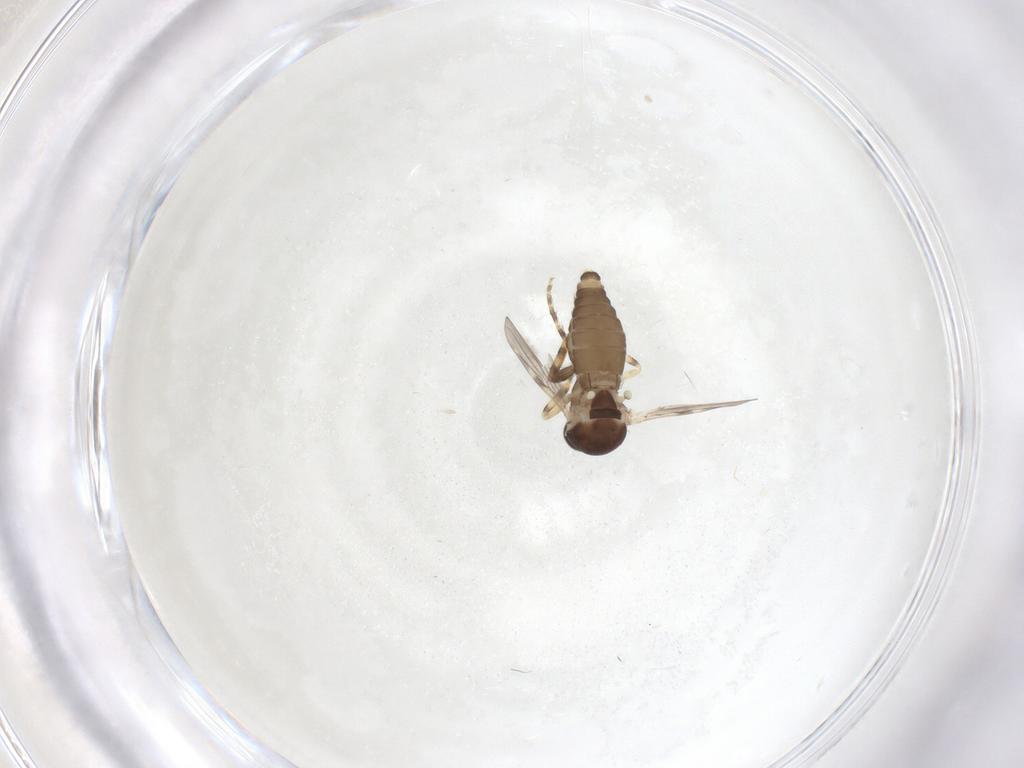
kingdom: Animalia
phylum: Arthropoda
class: Insecta
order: Diptera
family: Ceratopogonidae
